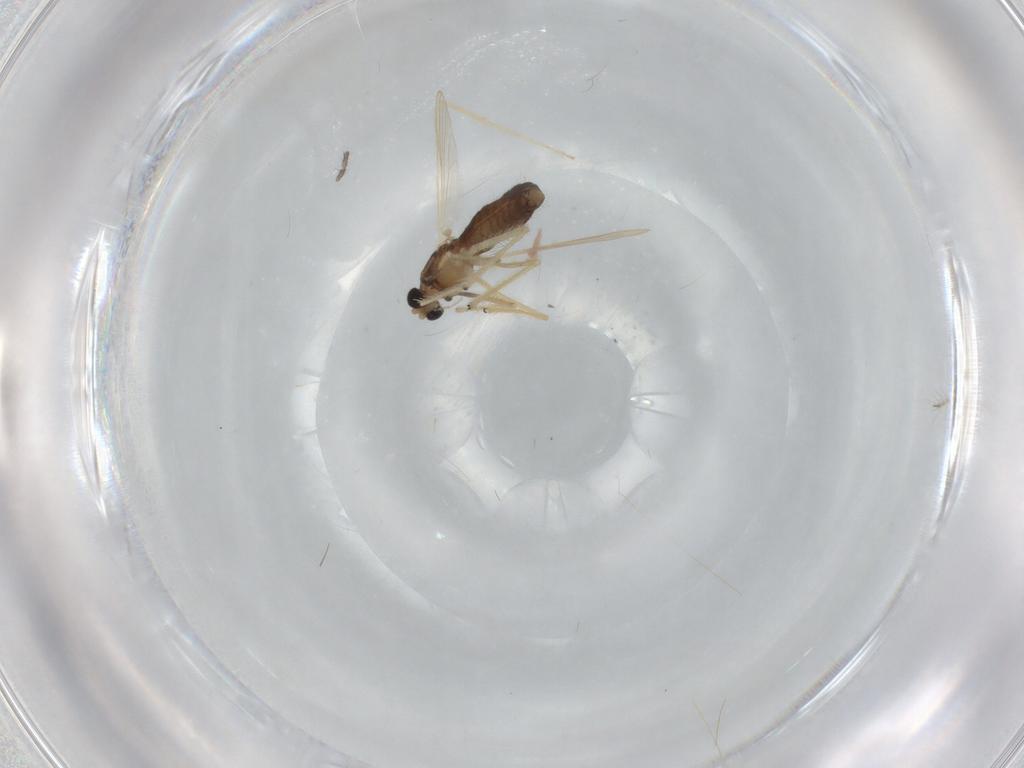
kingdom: Animalia
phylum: Arthropoda
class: Insecta
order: Diptera
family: Chironomidae
